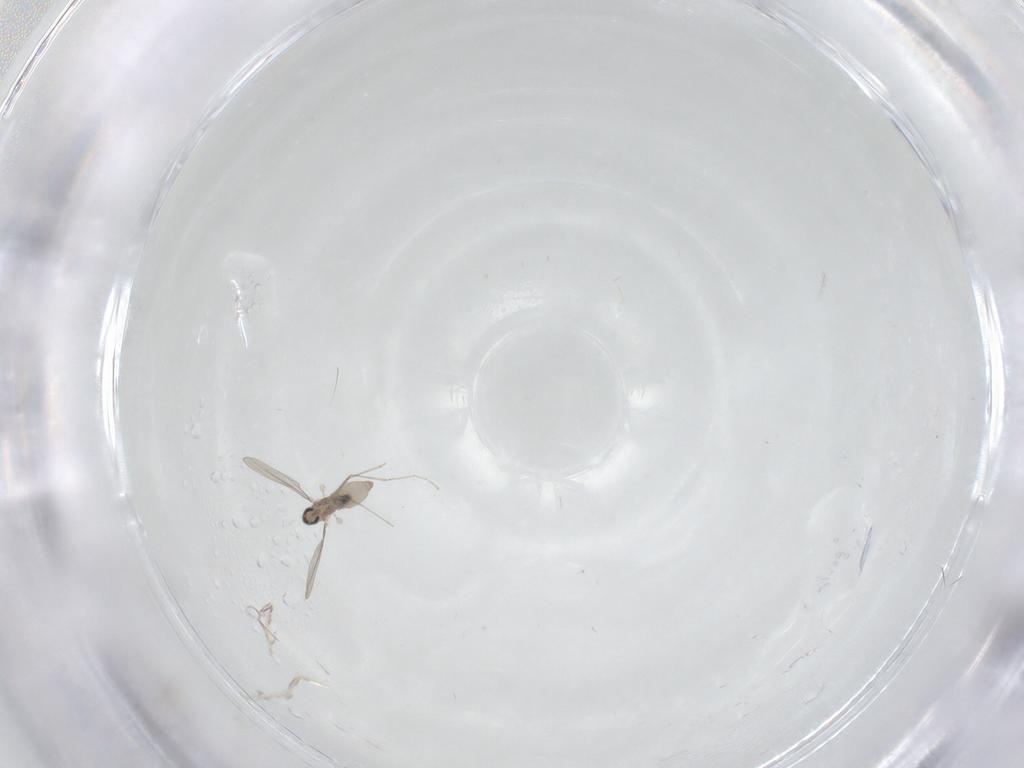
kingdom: Animalia
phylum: Arthropoda
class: Insecta
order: Diptera
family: Cecidomyiidae
